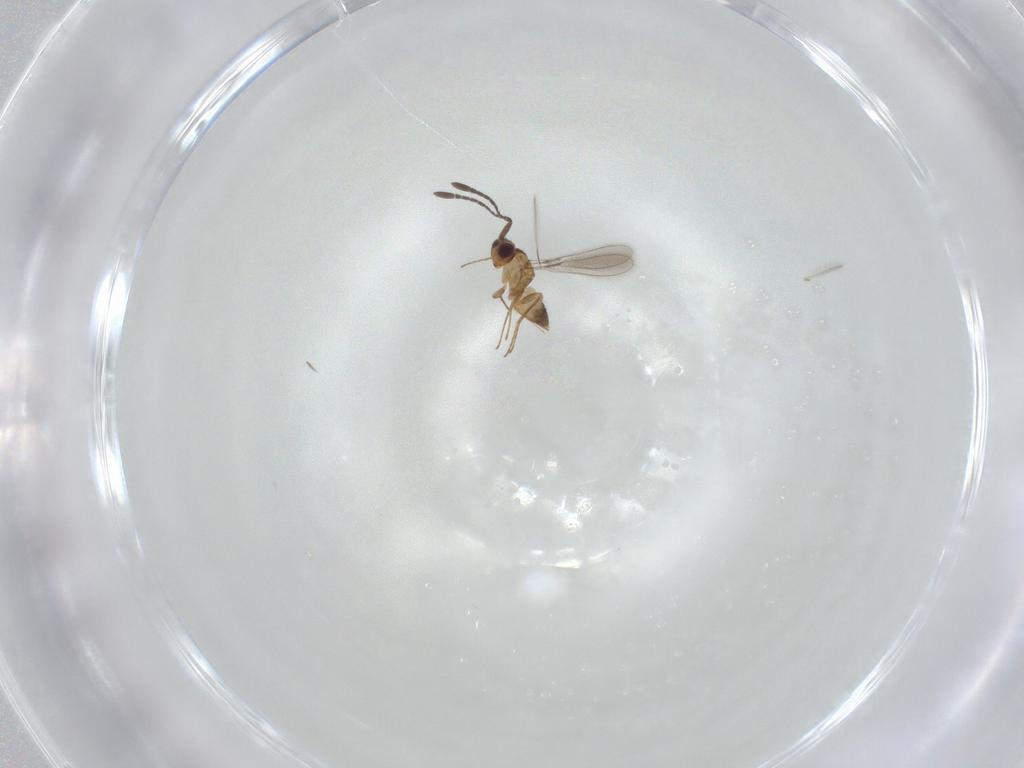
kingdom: Animalia
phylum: Arthropoda
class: Insecta
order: Hymenoptera
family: Mymaridae
